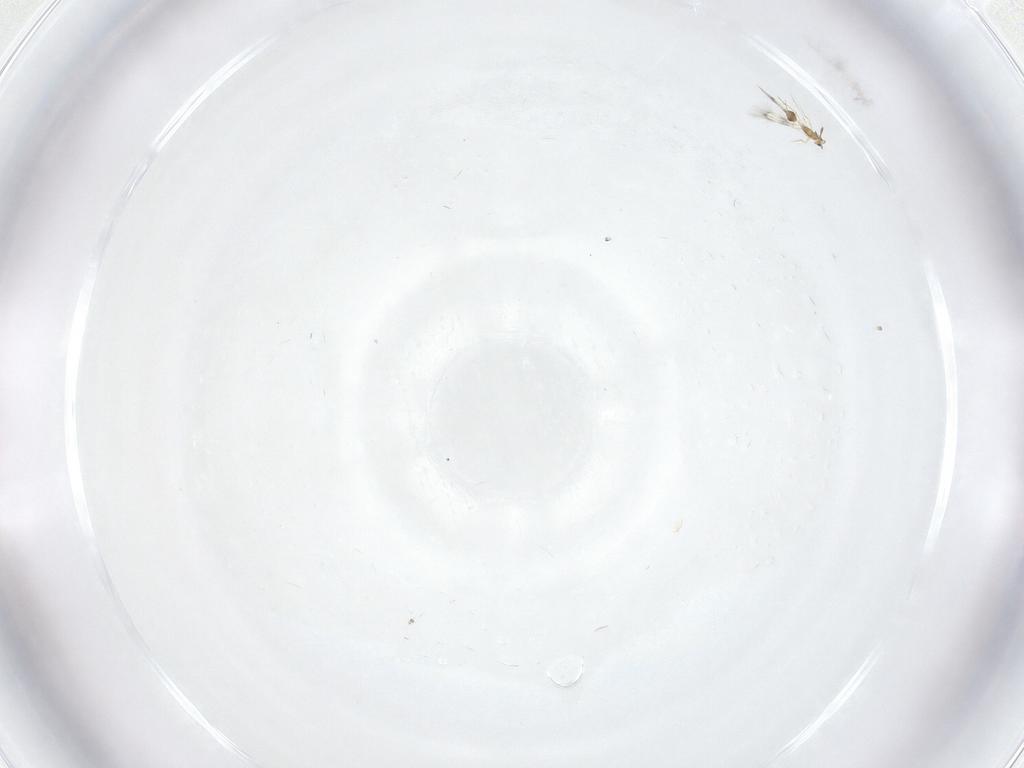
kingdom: Animalia
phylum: Arthropoda
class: Insecta
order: Hymenoptera
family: Mymarommatidae
